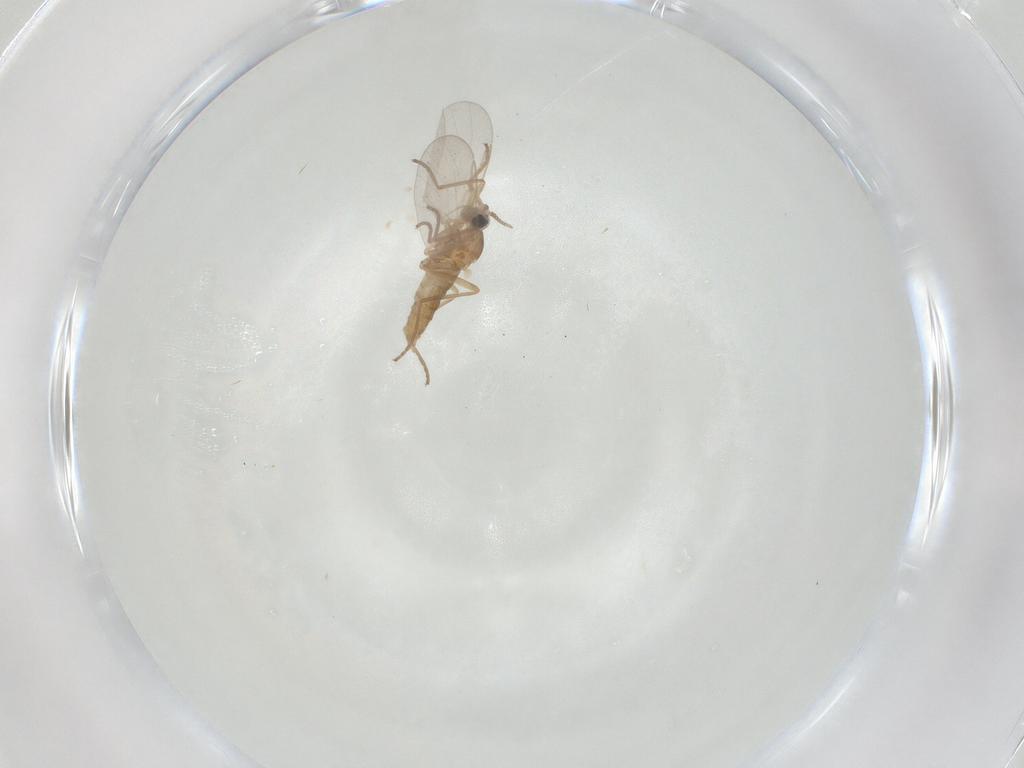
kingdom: Animalia
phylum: Arthropoda
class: Insecta
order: Diptera
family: Cecidomyiidae
